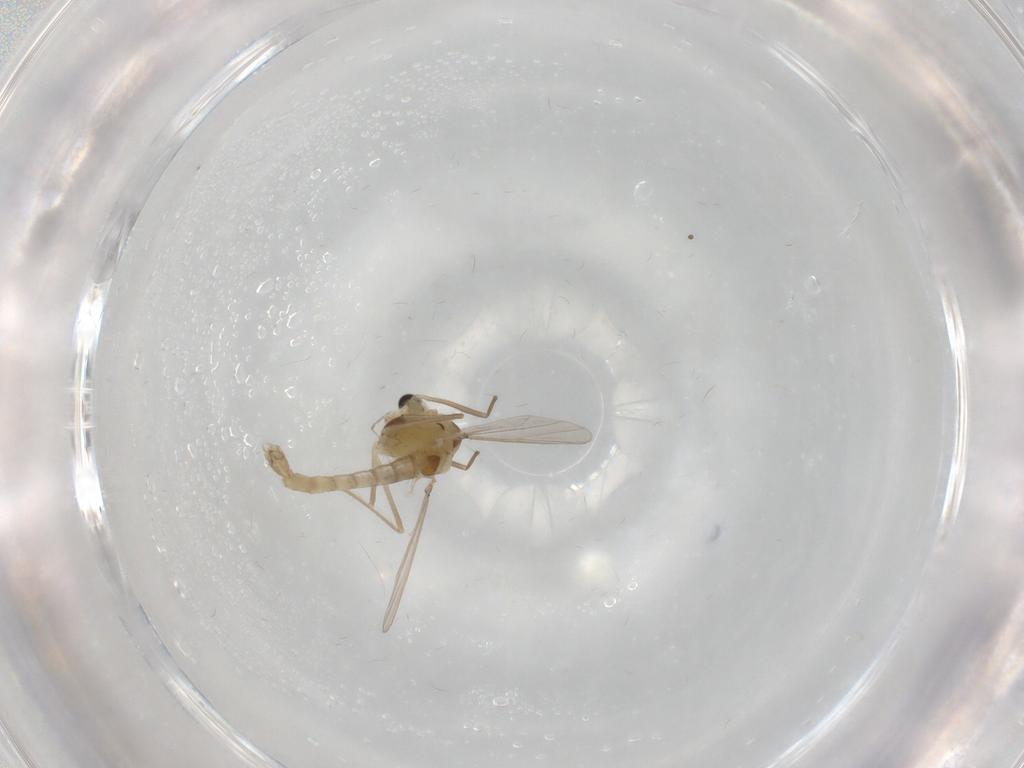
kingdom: Animalia
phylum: Arthropoda
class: Insecta
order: Diptera
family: Chironomidae
